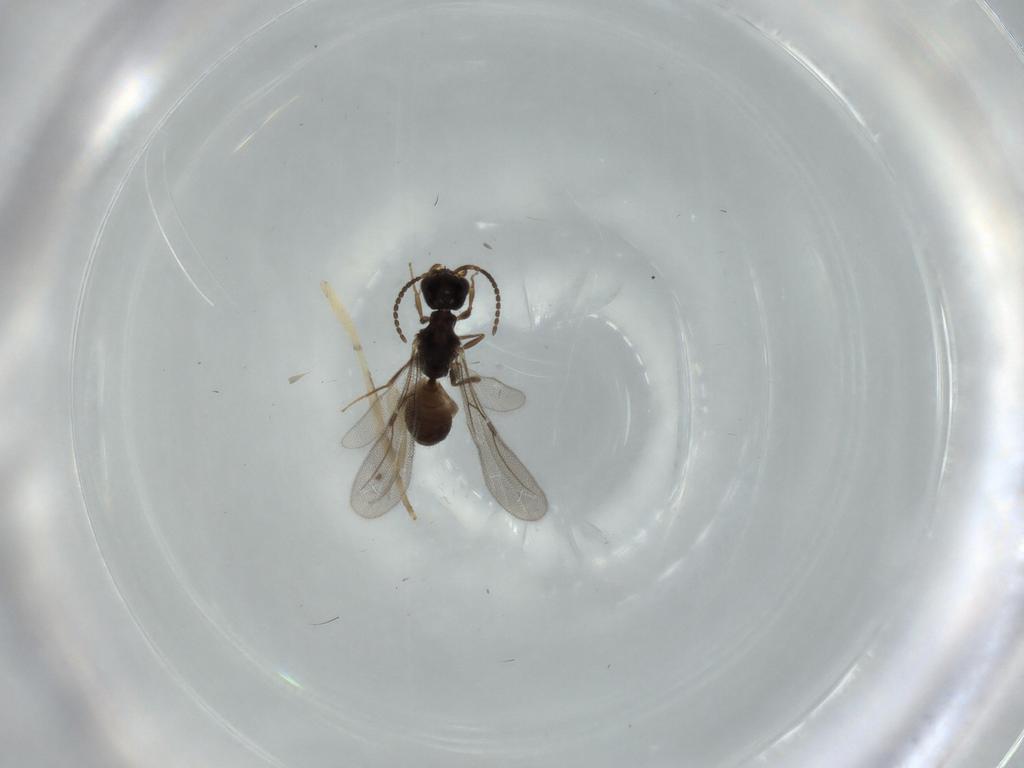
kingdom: Animalia
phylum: Arthropoda
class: Insecta
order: Hymenoptera
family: Bethylidae
